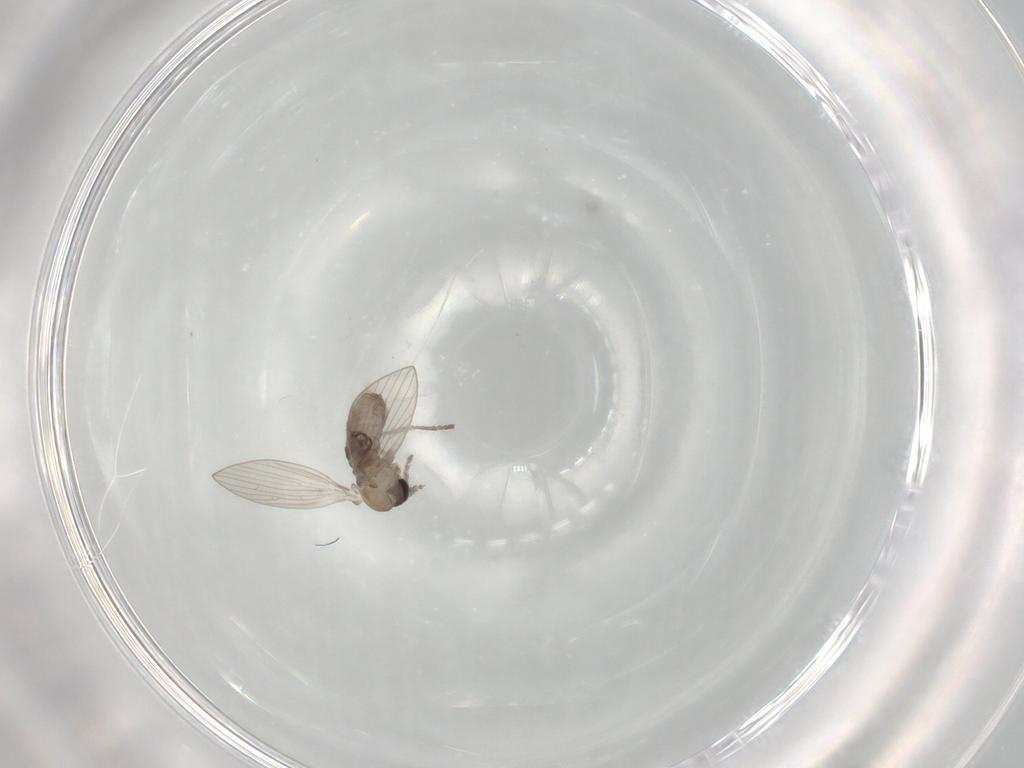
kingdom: Animalia
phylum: Arthropoda
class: Insecta
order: Diptera
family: Psychodidae
